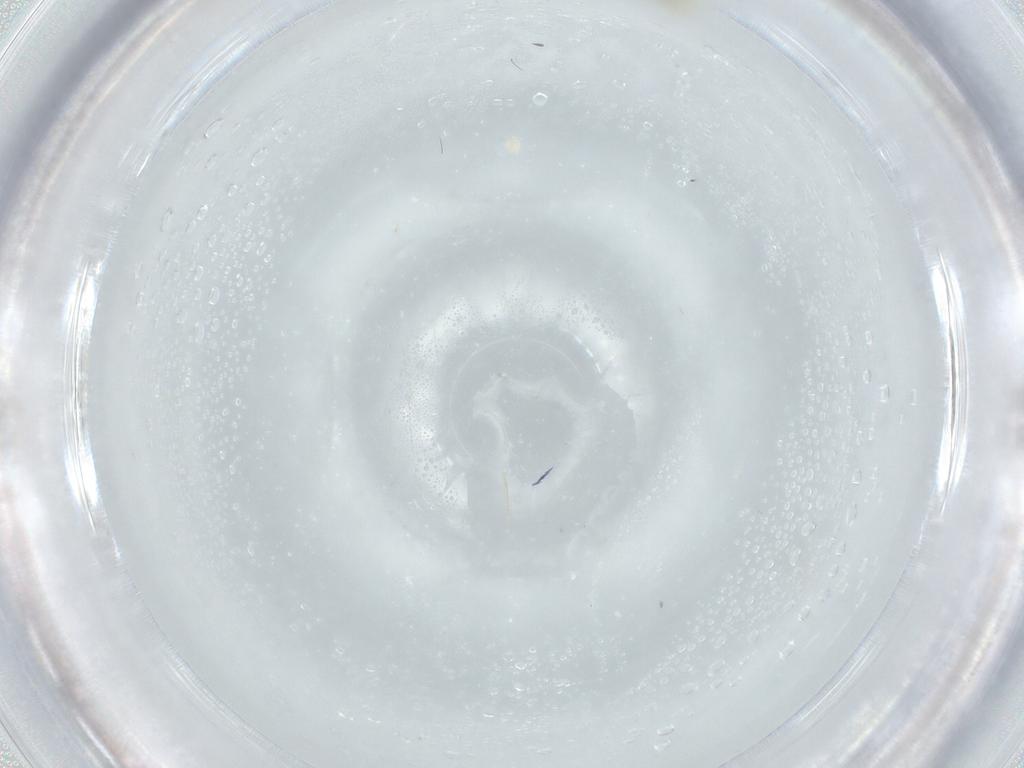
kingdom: Animalia
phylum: Arthropoda
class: Insecta
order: Diptera
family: Cecidomyiidae
